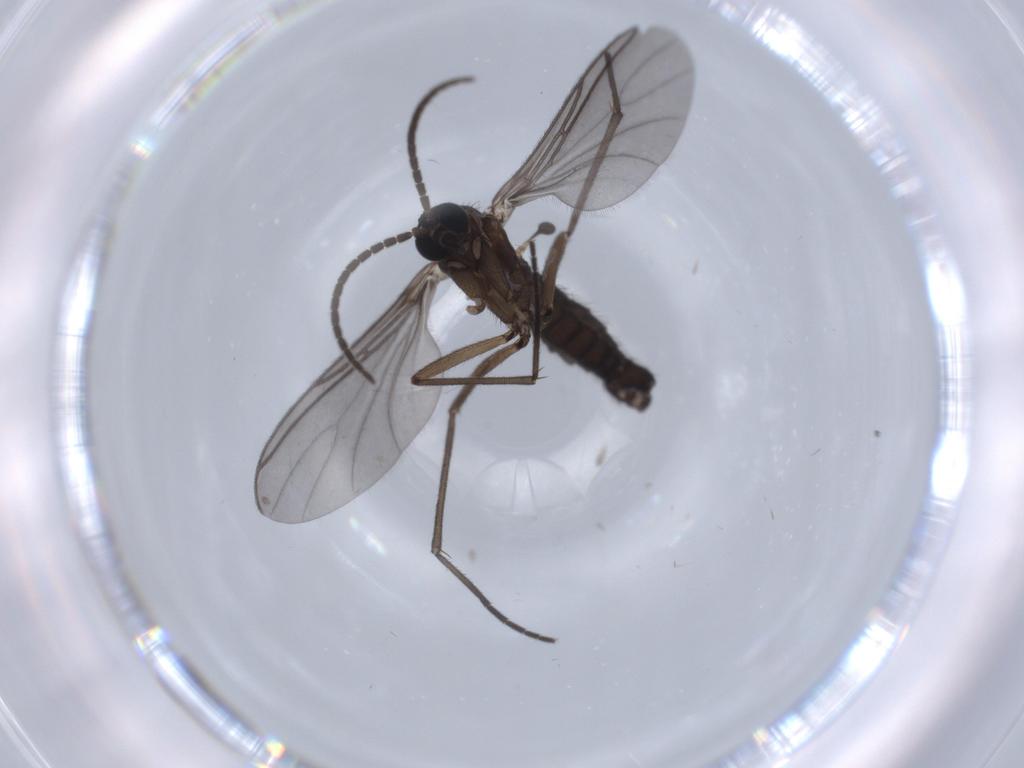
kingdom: Animalia
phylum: Arthropoda
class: Insecta
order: Diptera
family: Sciaridae
